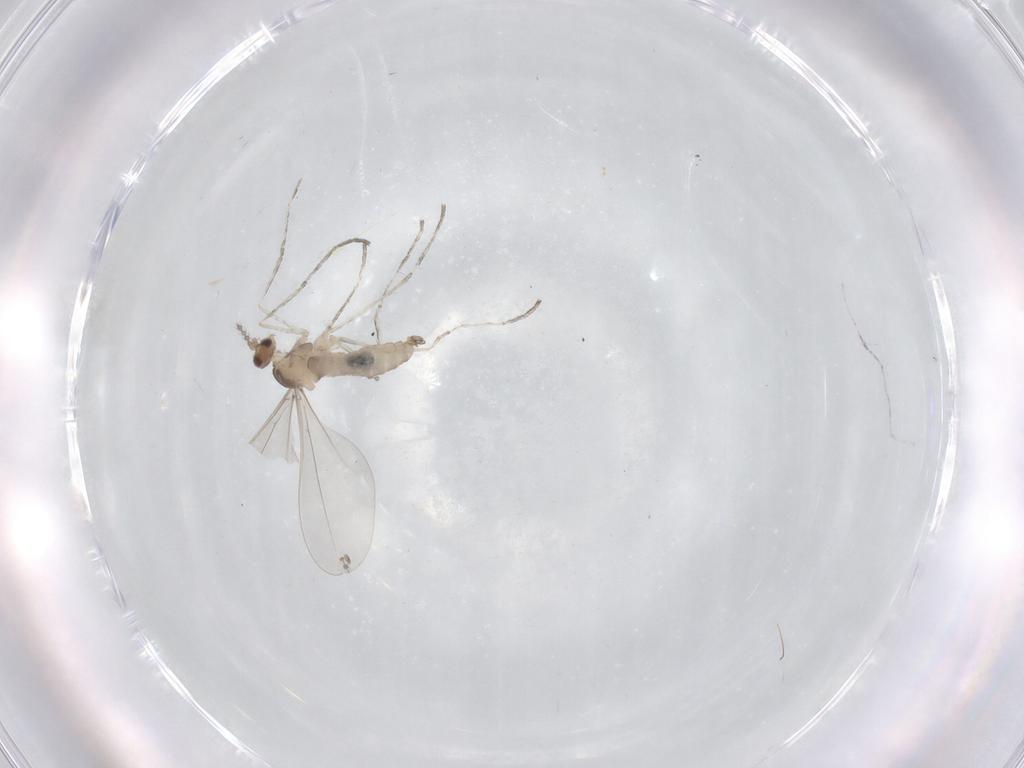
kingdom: Animalia
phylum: Arthropoda
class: Insecta
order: Diptera
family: Cecidomyiidae
